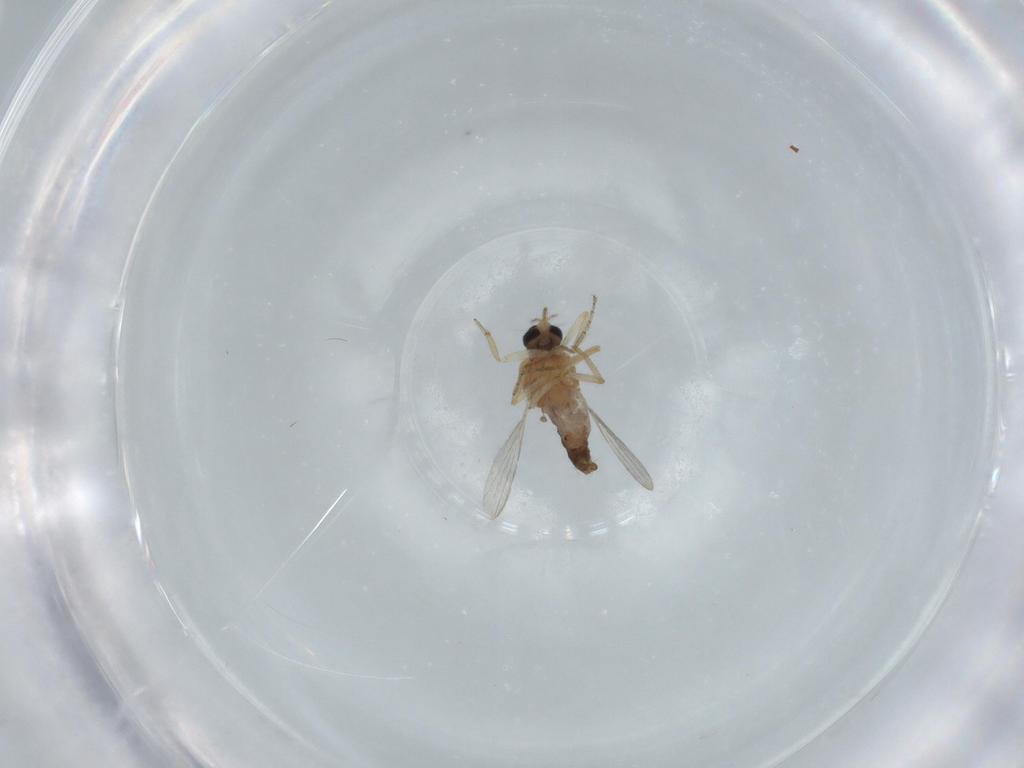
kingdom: Animalia
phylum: Arthropoda
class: Insecta
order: Diptera
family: Ceratopogonidae
